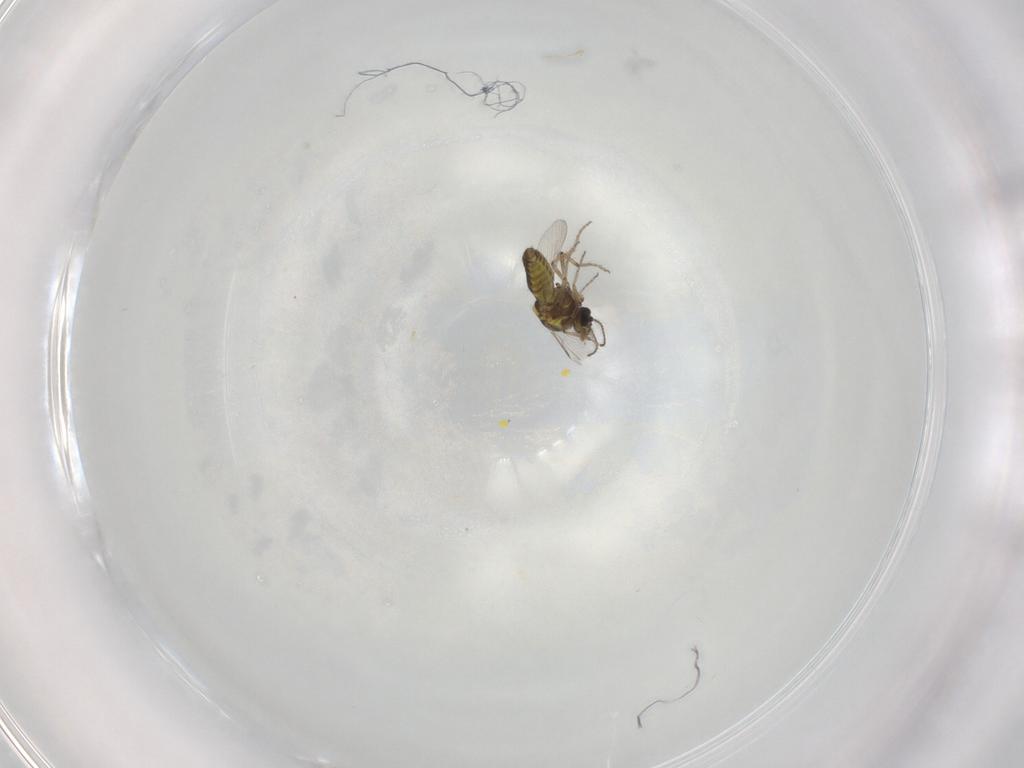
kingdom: Animalia
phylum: Arthropoda
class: Insecta
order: Diptera
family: Ceratopogonidae
